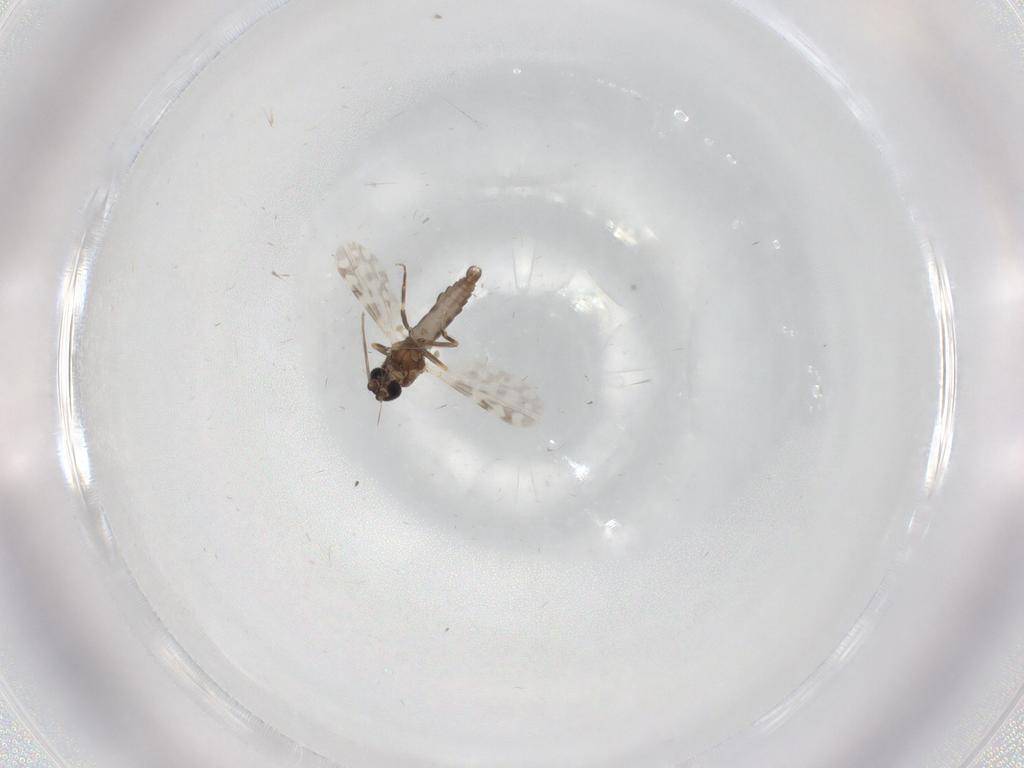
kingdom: Animalia
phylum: Arthropoda
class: Insecta
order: Diptera
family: Ceratopogonidae
